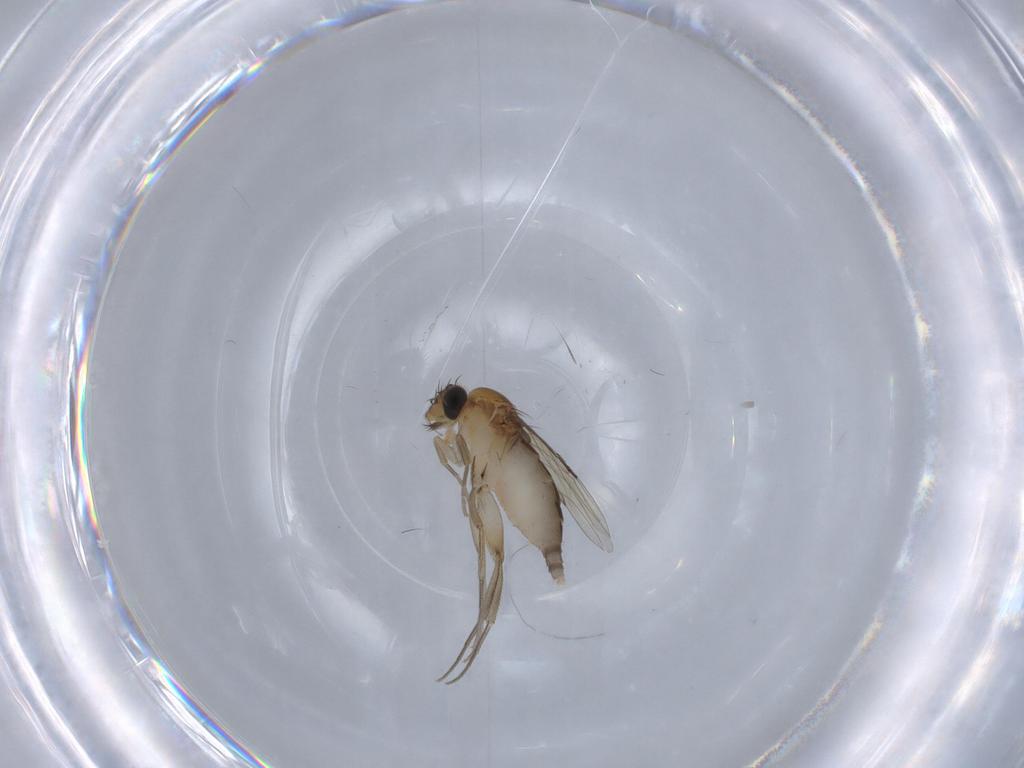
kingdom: Animalia
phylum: Arthropoda
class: Insecta
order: Diptera
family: Phoridae
